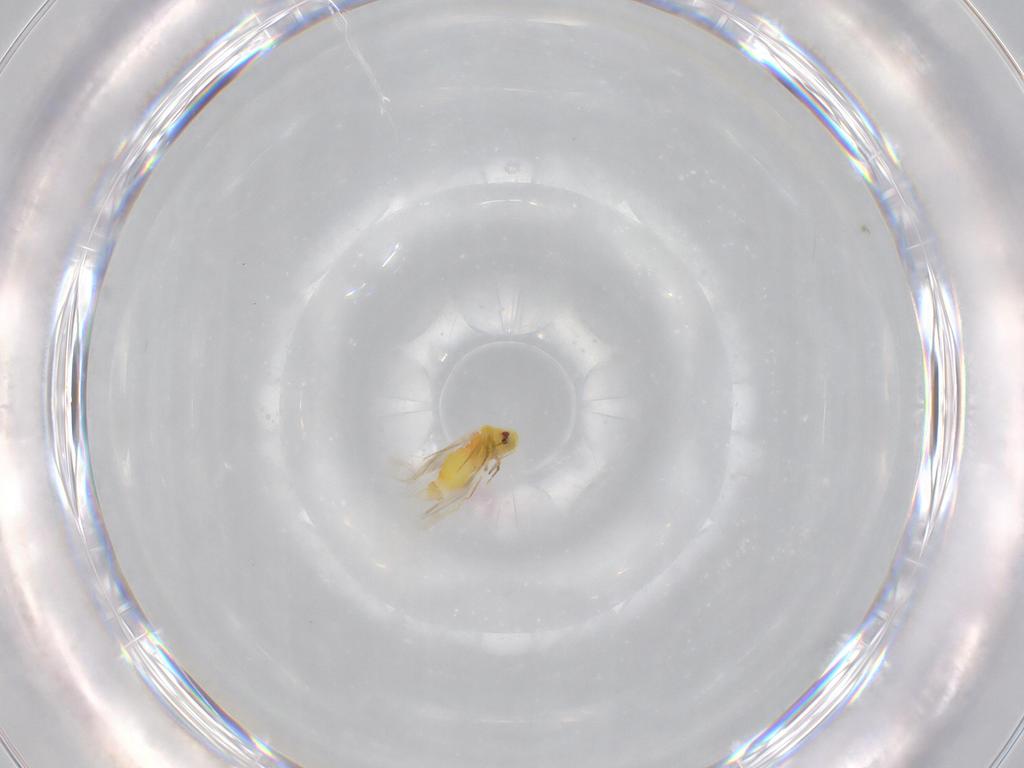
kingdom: Animalia
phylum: Arthropoda
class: Insecta
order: Hemiptera
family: Aleyrodidae
